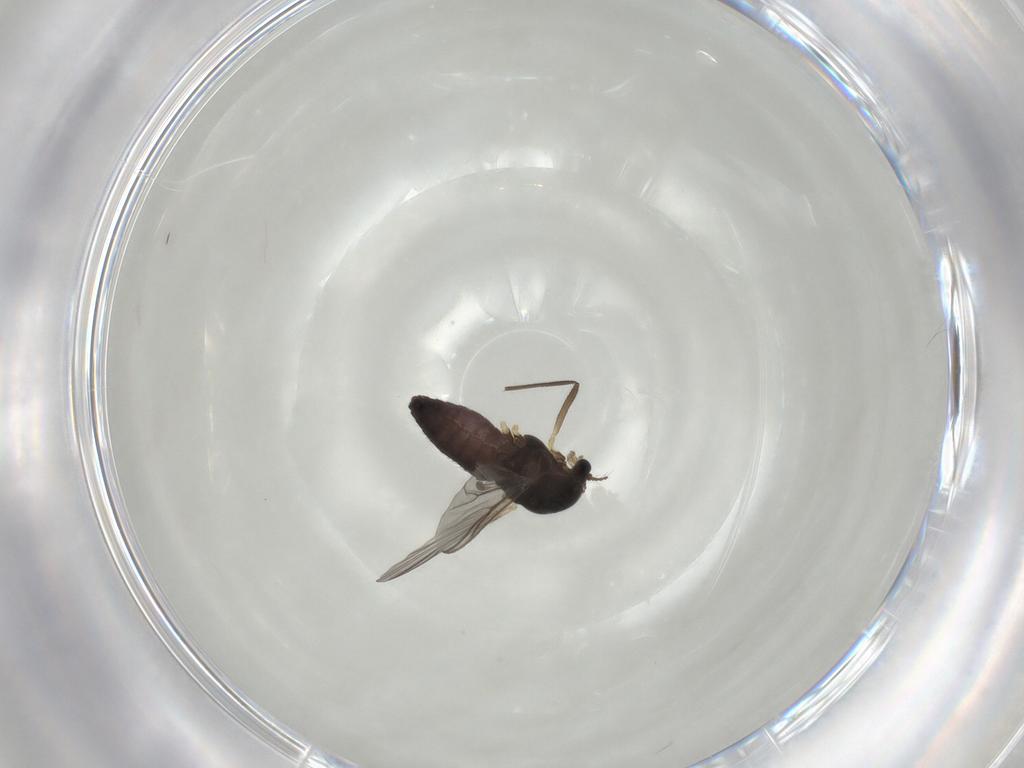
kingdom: Animalia
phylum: Arthropoda
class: Insecta
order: Diptera
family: Chironomidae
